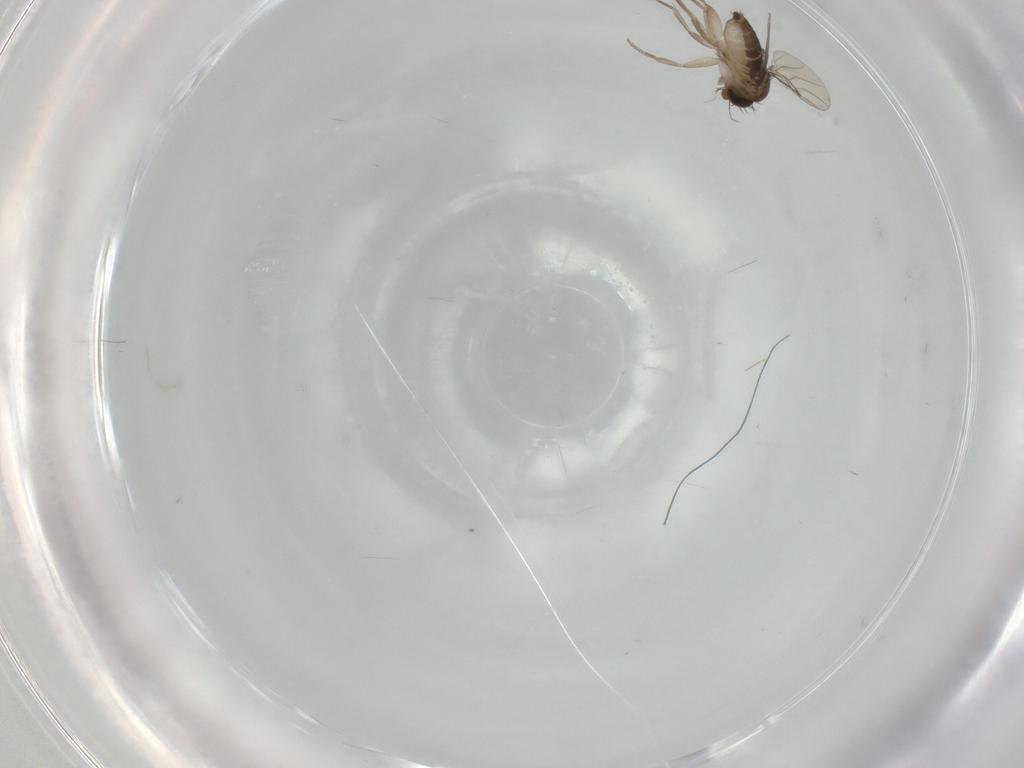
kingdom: Animalia
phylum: Arthropoda
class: Insecta
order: Diptera
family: Phoridae
